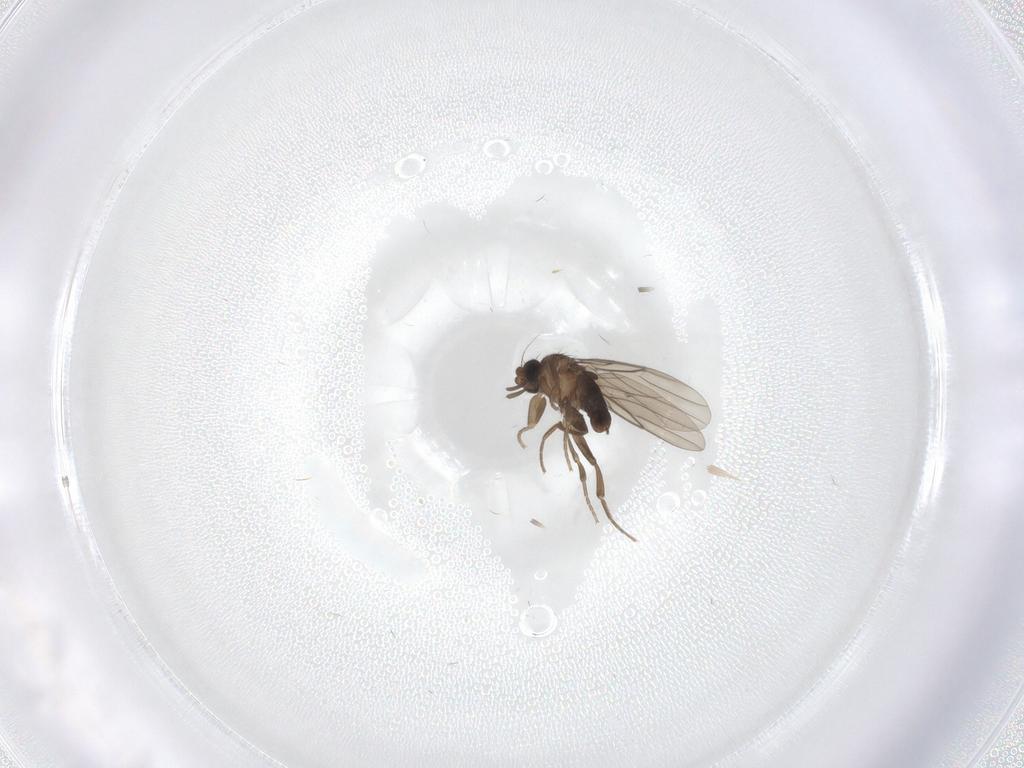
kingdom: Animalia
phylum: Arthropoda
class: Insecta
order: Diptera
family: Phoridae
